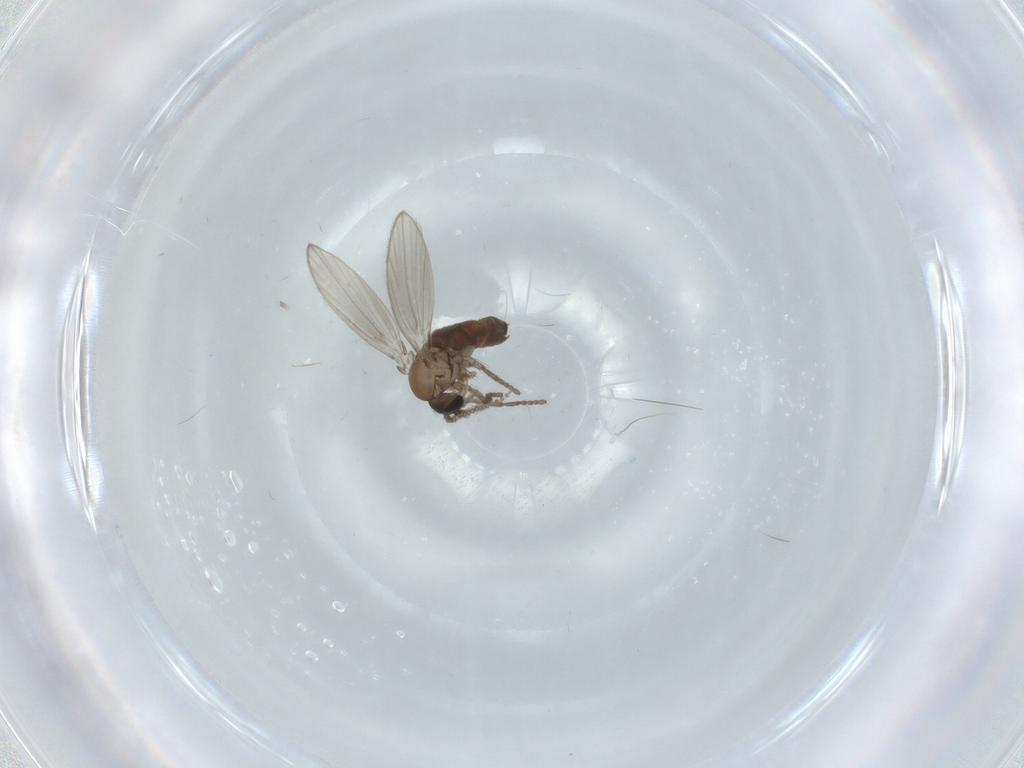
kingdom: Animalia
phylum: Arthropoda
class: Insecta
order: Diptera
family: Psychodidae
